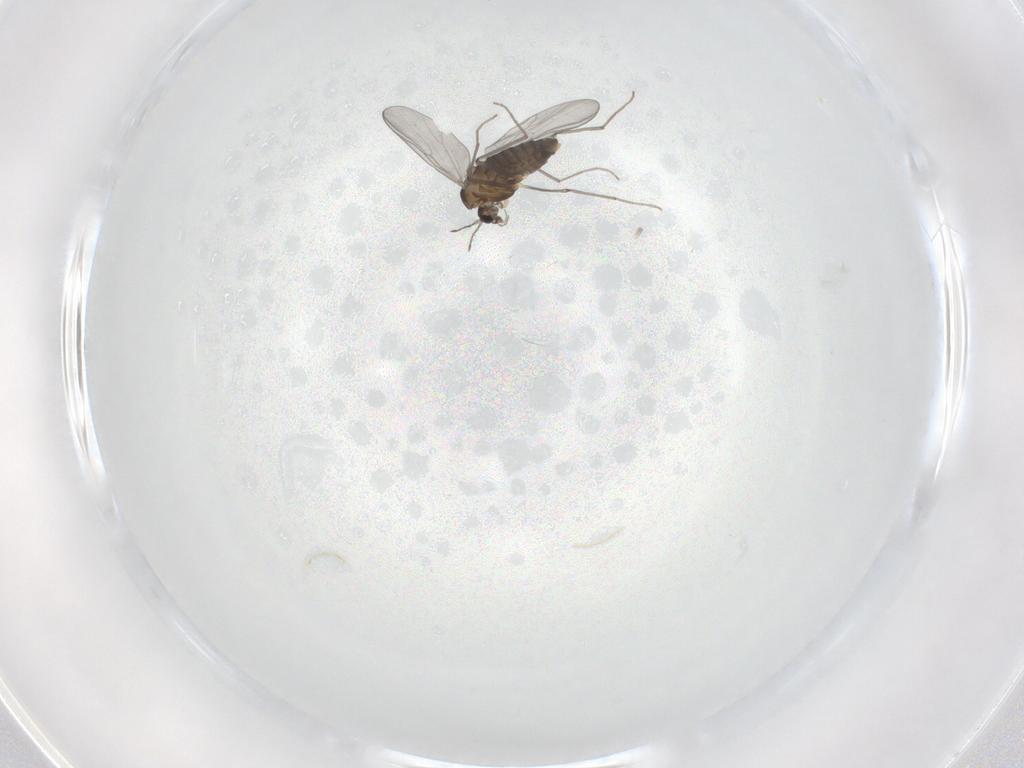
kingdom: Animalia
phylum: Arthropoda
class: Insecta
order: Diptera
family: Chironomidae
